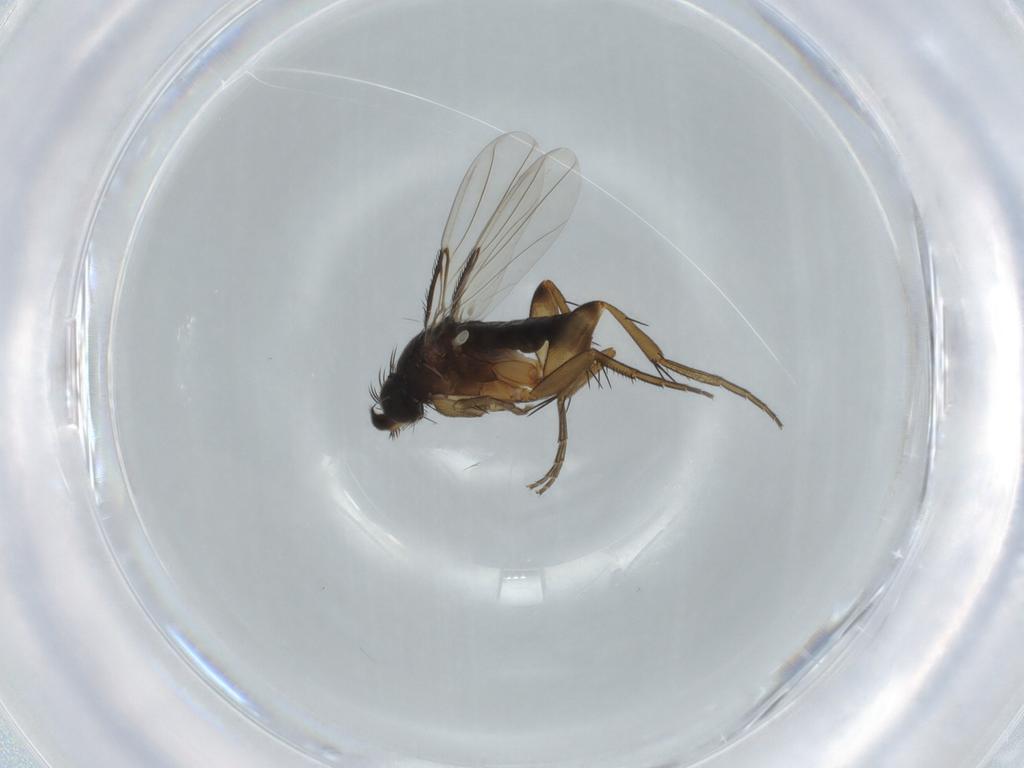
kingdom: Animalia
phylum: Arthropoda
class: Insecta
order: Diptera
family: Phoridae
